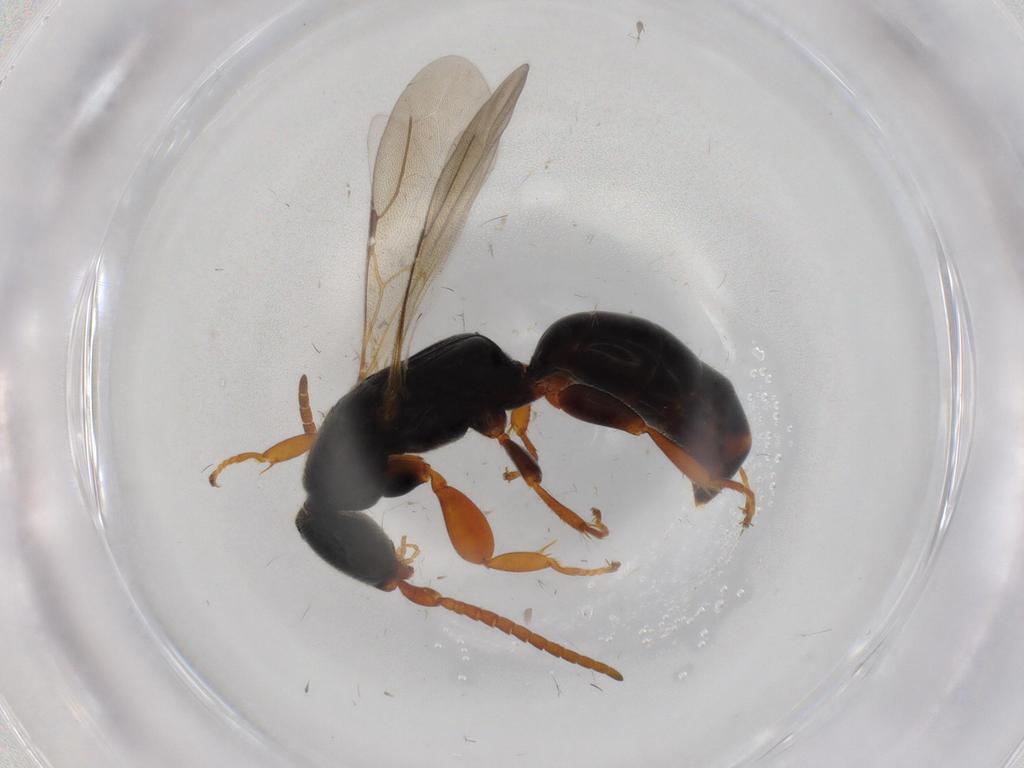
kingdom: Animalia
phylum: Arthropoda
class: Insecta
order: Hymenoptera
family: Bethylidae
